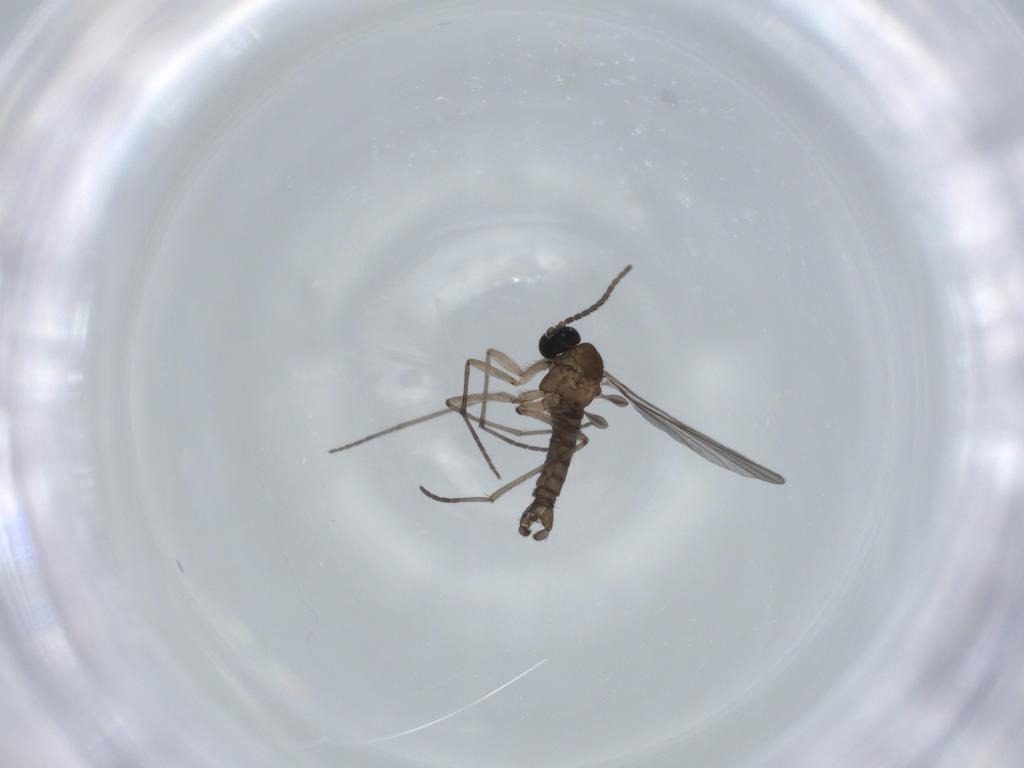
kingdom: Animalia
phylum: Arthropoda
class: Insecta
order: Diptera
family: Sciaridae
